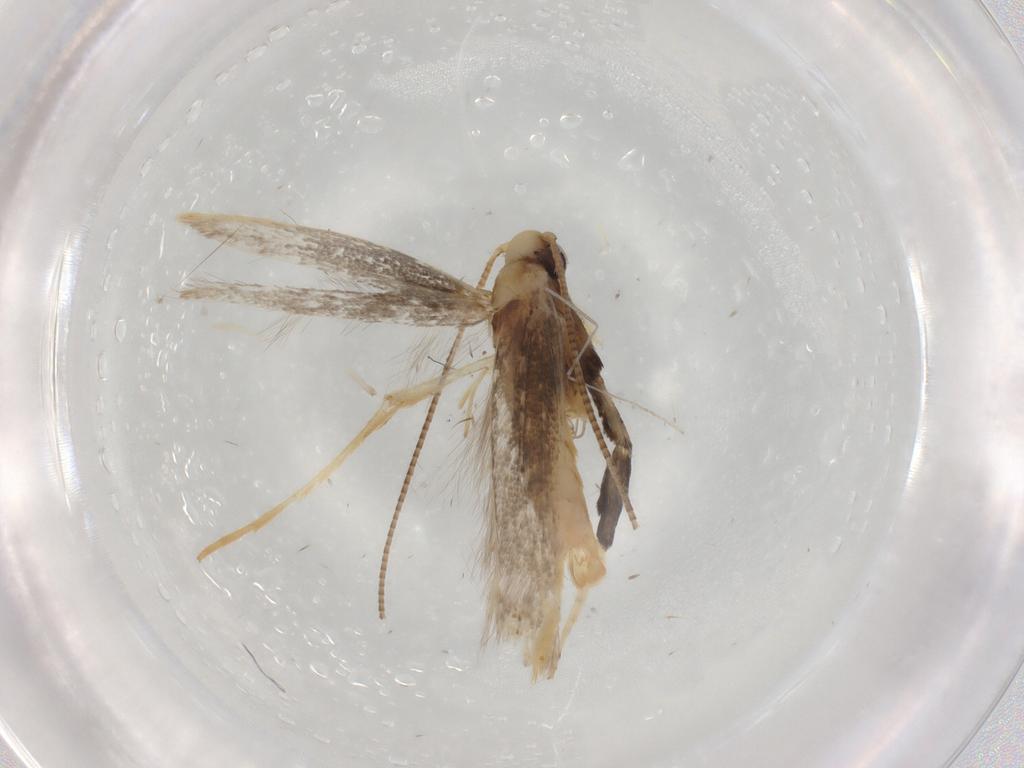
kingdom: Animalia
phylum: Arthropoda
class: Insecta
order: Lepidoptera
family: Gracillariidae
